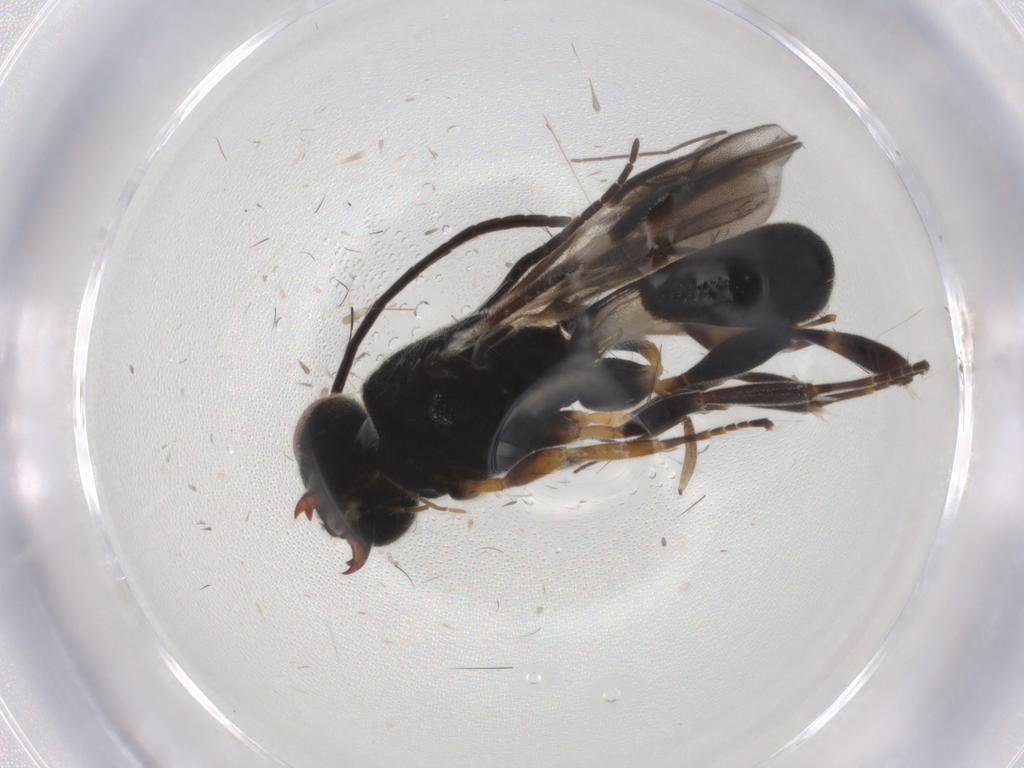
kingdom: Animalia
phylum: Arthropoda
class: Insecta
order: Hymenoptera
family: Braconidae
